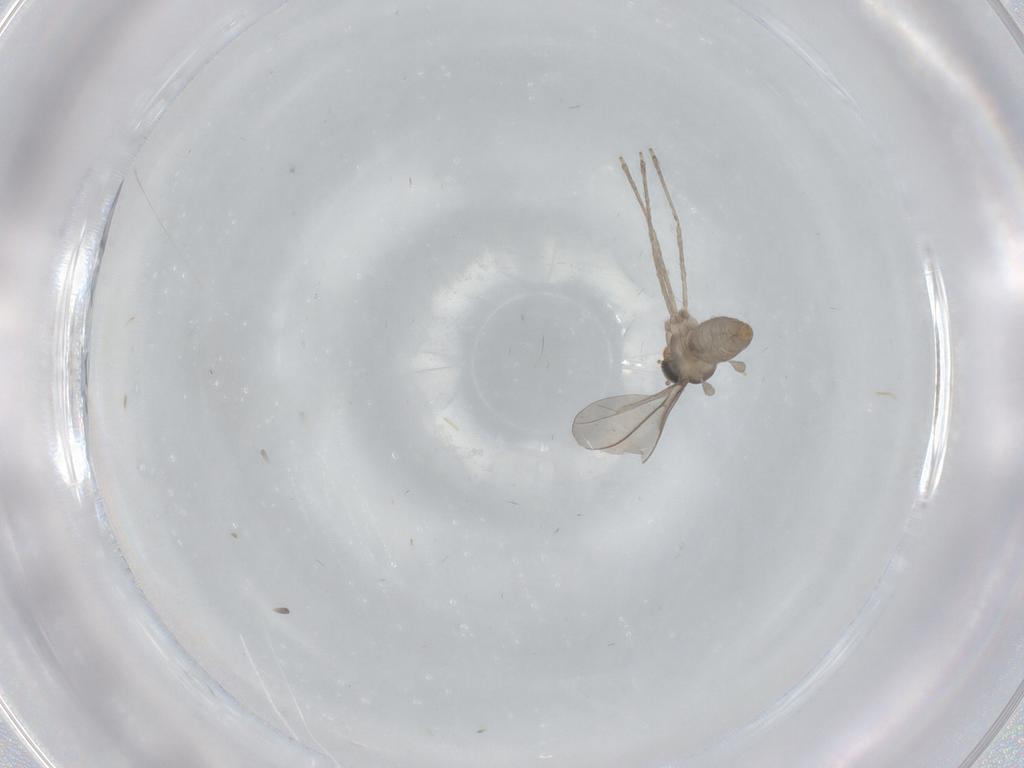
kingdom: Animalia
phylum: Arthropoda
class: Insecta
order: Diptera
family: Cecidomyiidae
